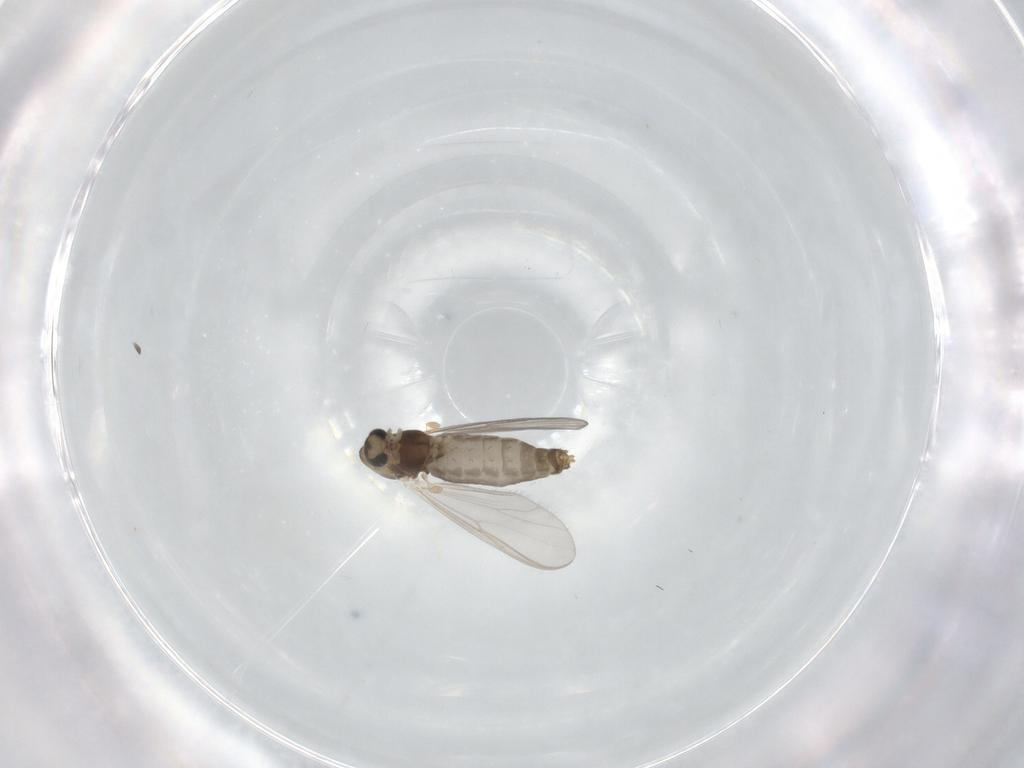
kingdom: Animalia
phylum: Arthropoda
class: Insecta
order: Diptera
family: Chironomidae
